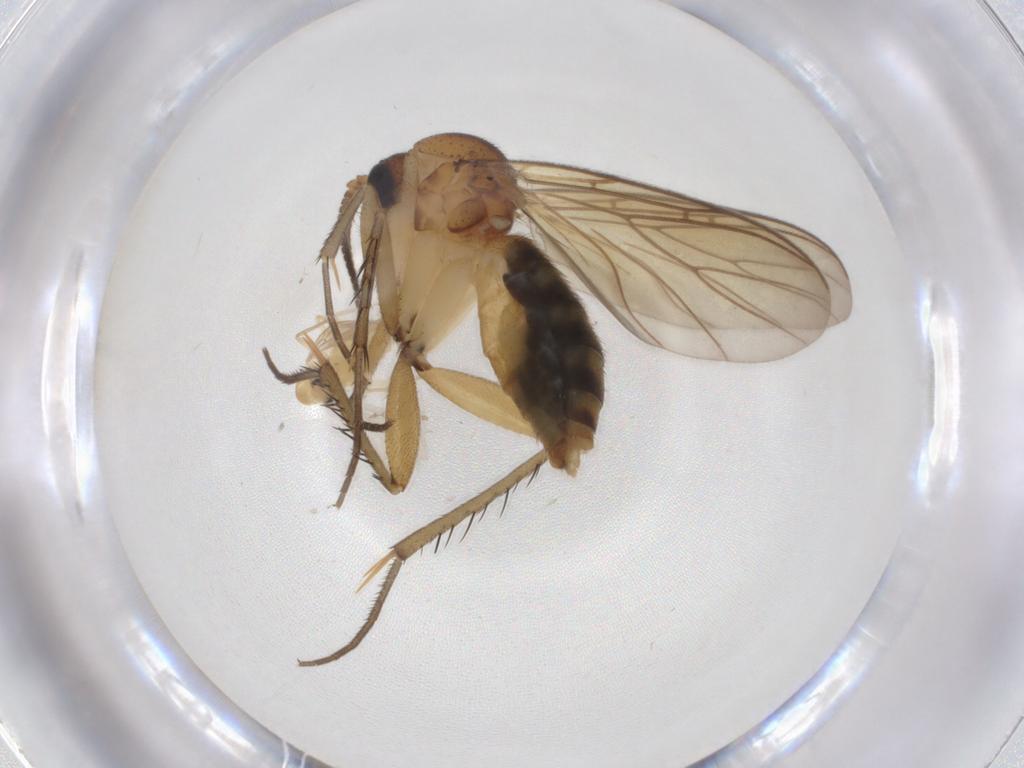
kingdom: Animalia
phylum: Arthropoda
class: Insecta
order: Diptera
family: Mycetophilidae
